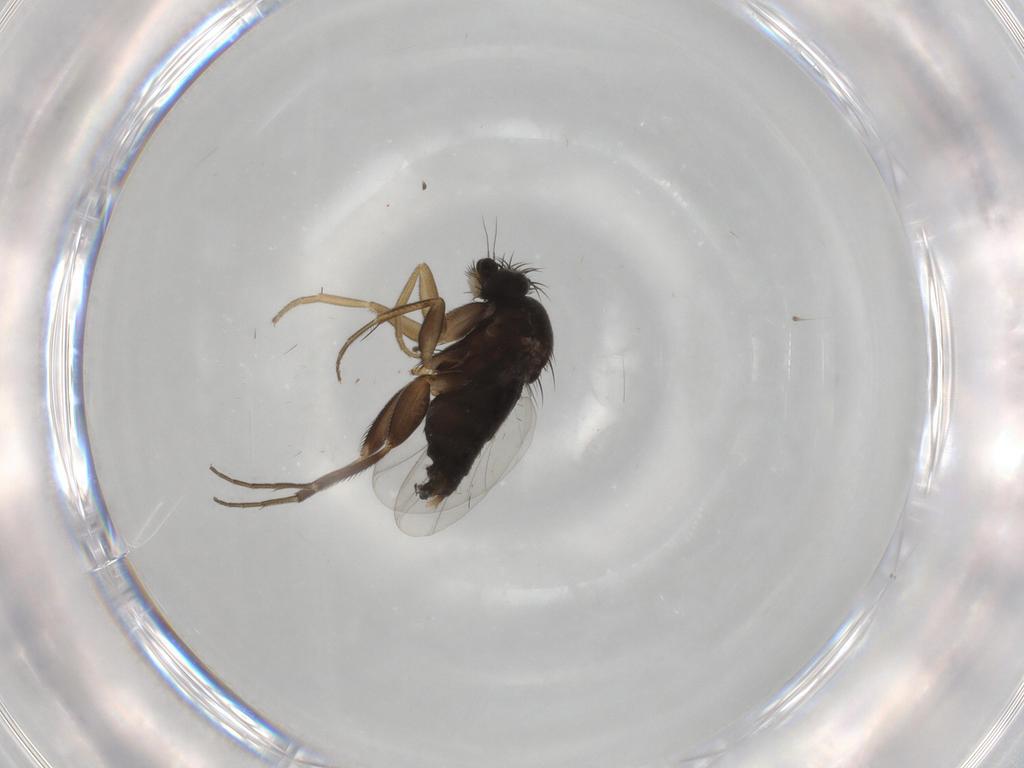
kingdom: Animalia
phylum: Arthropoda
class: Insecta
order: Diptera
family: Phoridae
